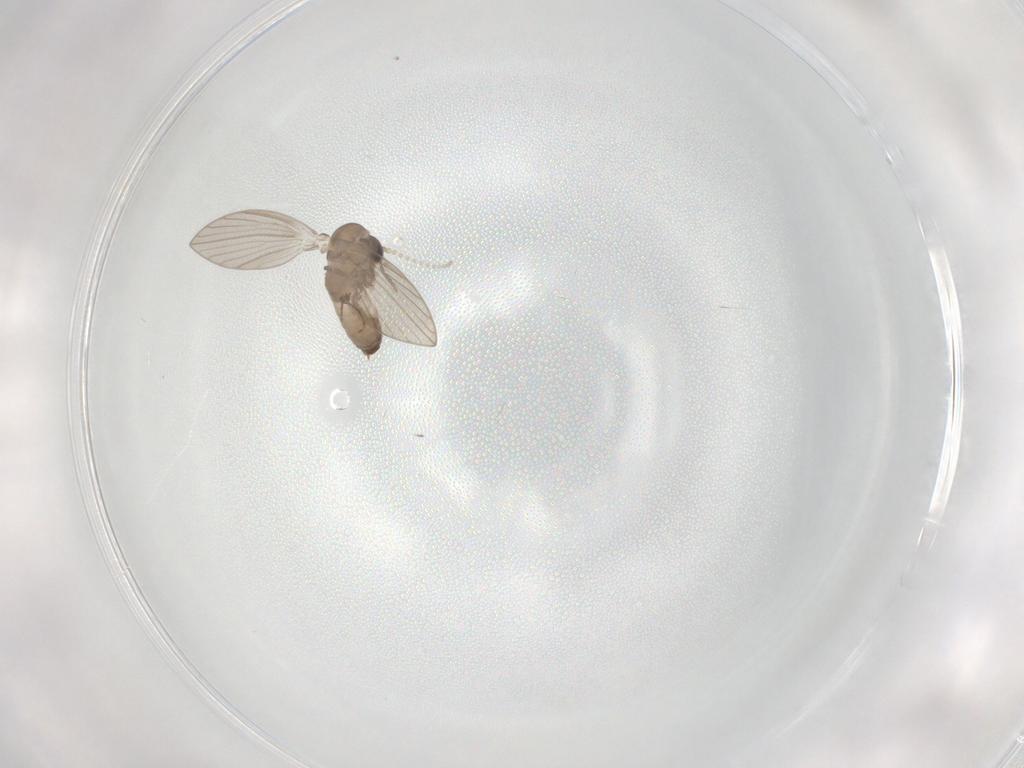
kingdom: Animalia
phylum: Arthropoda
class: Insecta
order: Diptera
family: Psychodidae
